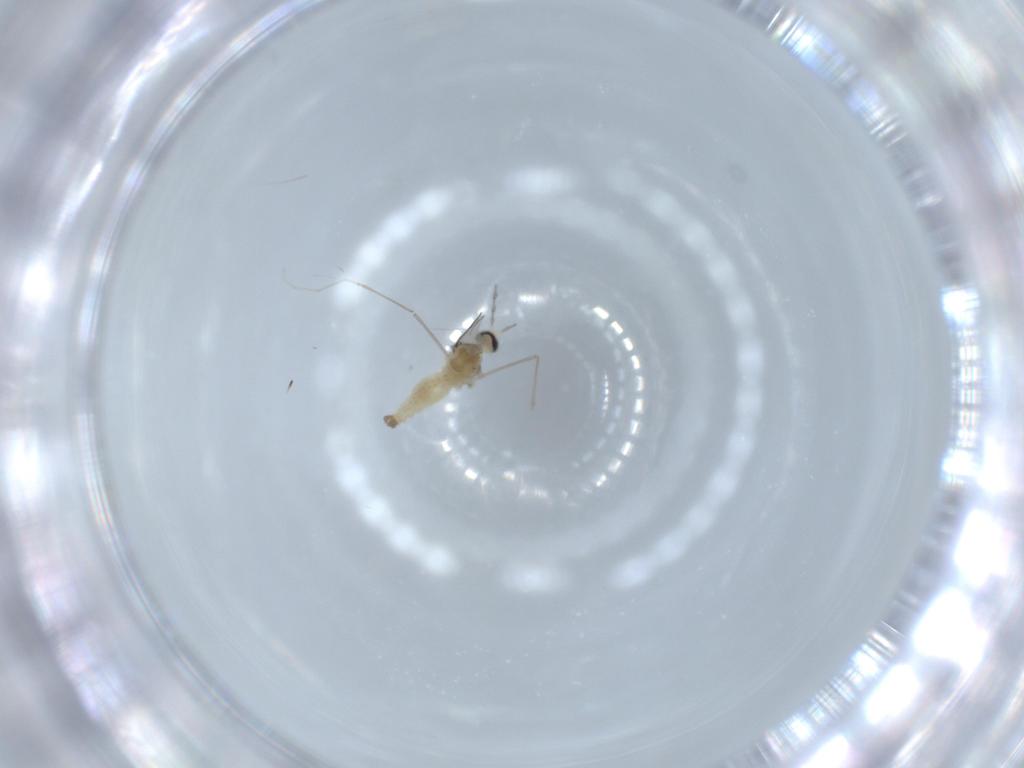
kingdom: Animalia
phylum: Arthropoda
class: Insecta
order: Diptera
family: Cecidomyiidae
